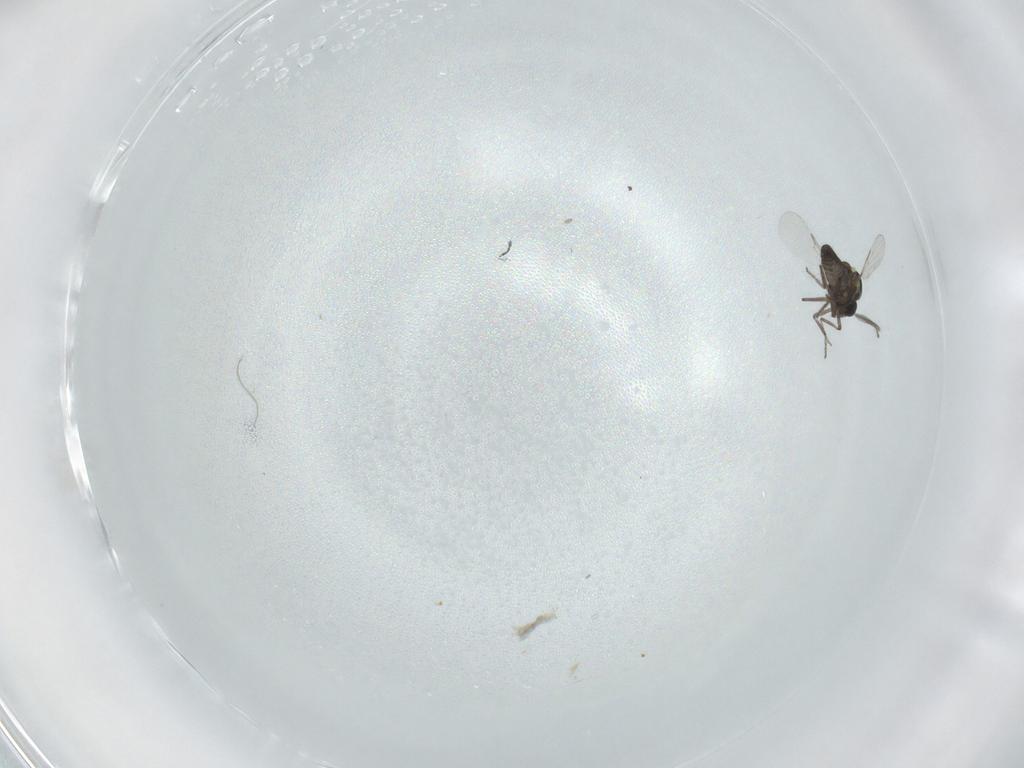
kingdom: Animalia
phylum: Arthropoda
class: Insecta
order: Diptera
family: Ceratopogonidae
